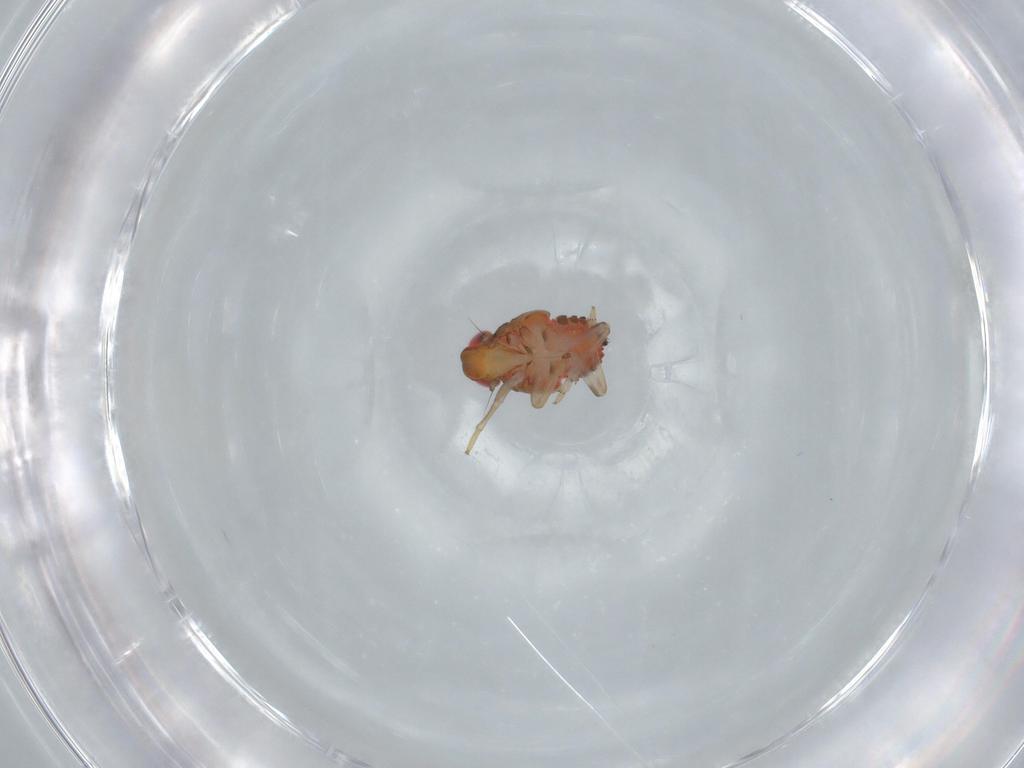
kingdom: Animalia
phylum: Arthropoda
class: Insecta
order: Hemiptera
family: Issidae
